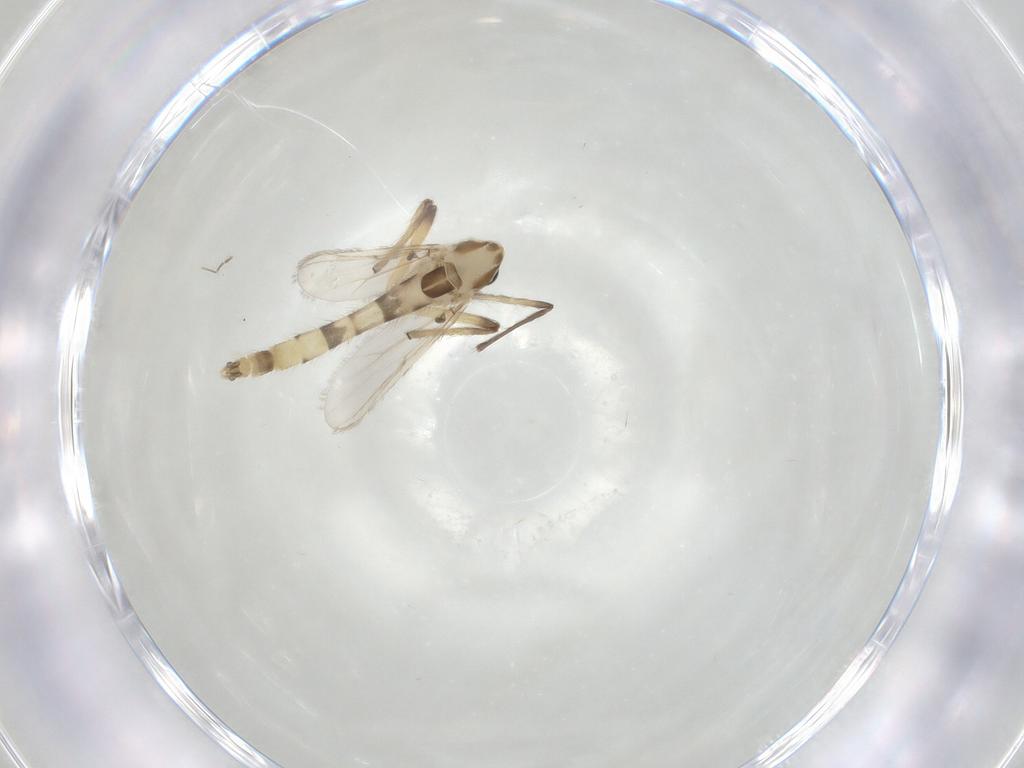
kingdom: Animalia
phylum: Arthropoda
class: Insecta
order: Diptera
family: Chironomidae
